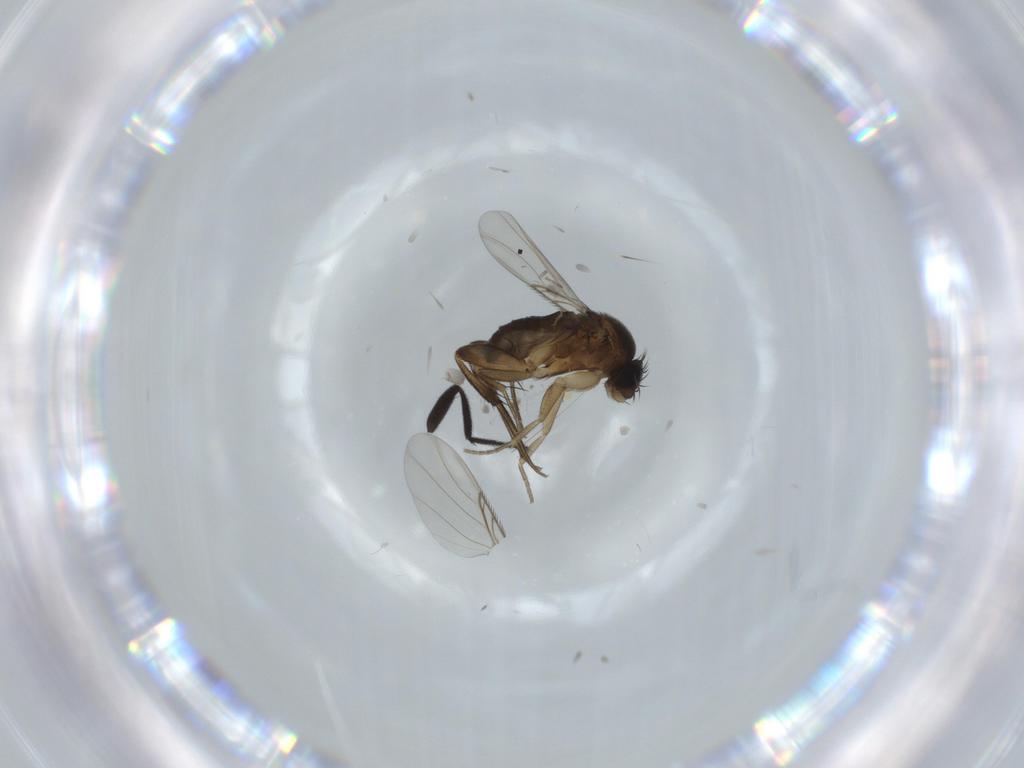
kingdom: Animalia
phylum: Arthropoda
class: Insecta
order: Diptera
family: Phoridae
